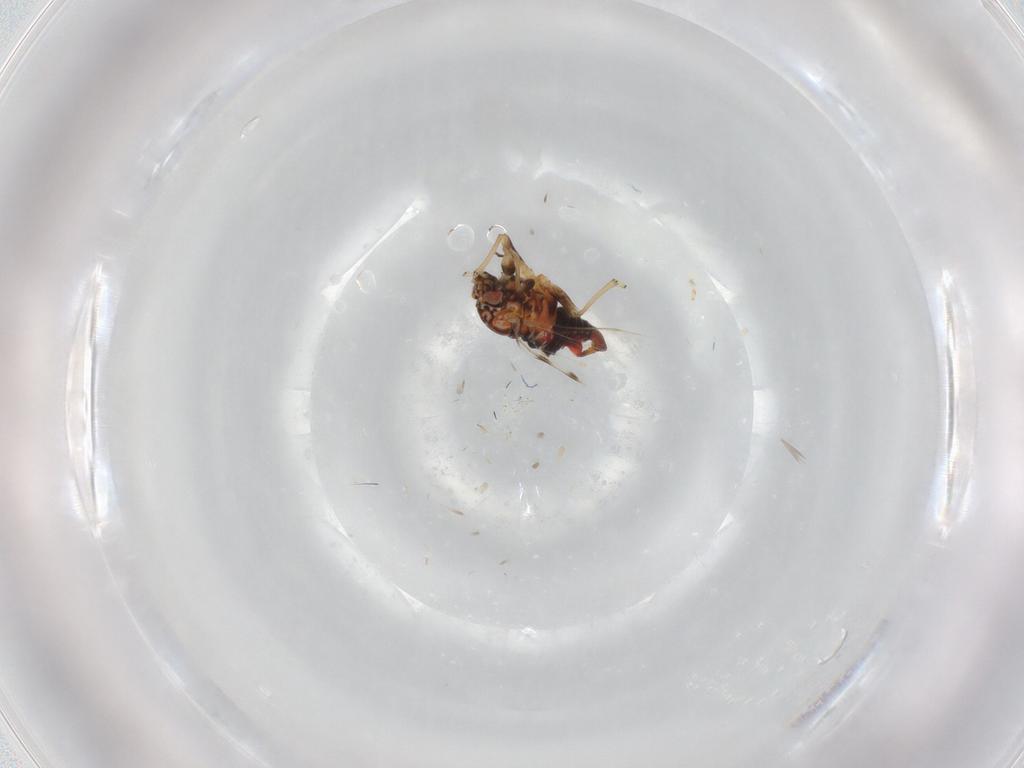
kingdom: Animalia
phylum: Arthropoda
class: Insecta
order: Hemiptera
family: Psyllidae
